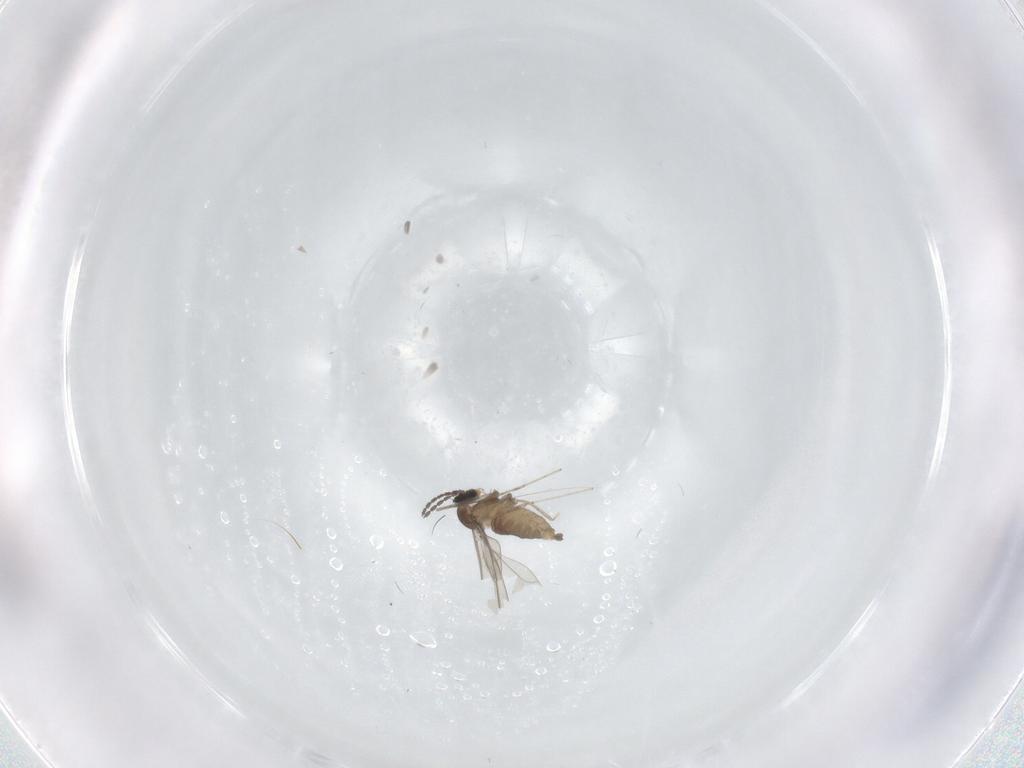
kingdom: Animalia
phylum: Arthropoda
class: Insecta
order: Diptera
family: Cecidomyiidae
